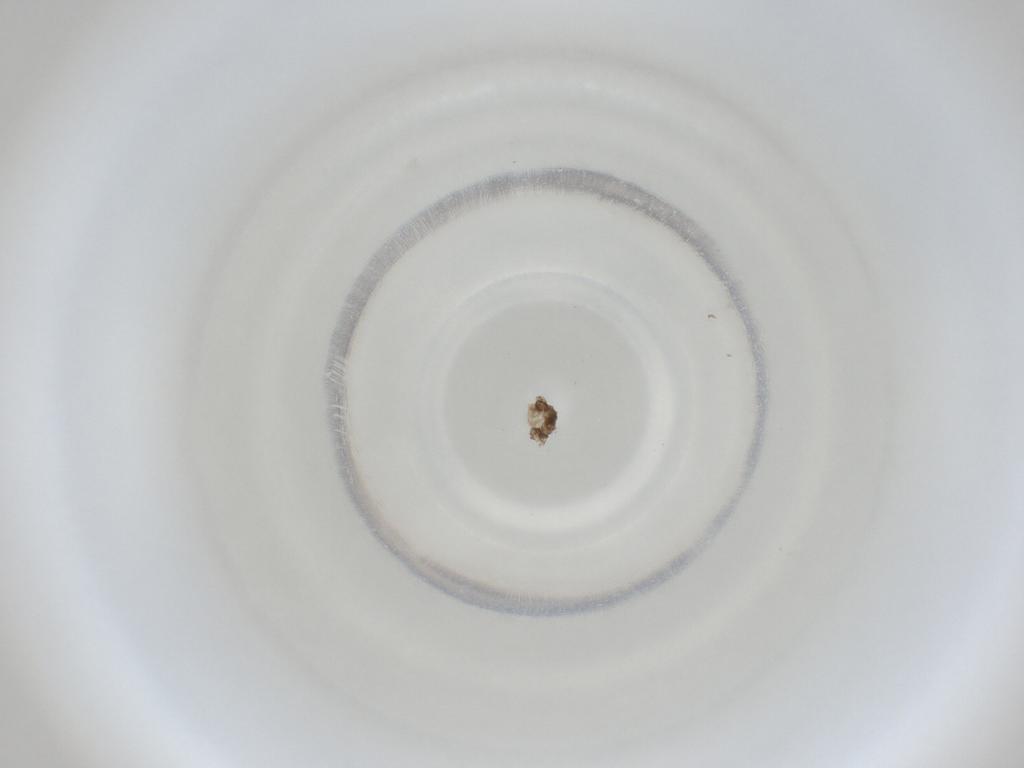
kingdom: Animalia
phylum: Arthropoda
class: Insecta
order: Diptera
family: Cecidomyiidae
